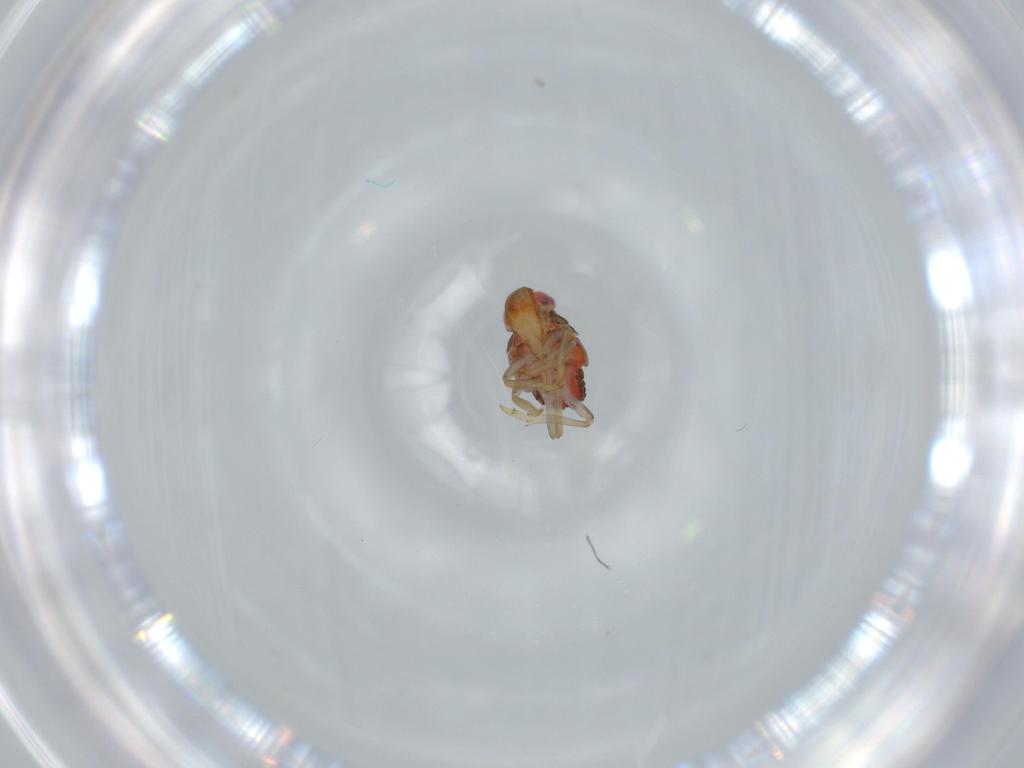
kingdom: Animalia
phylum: Arthropoda
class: Insecta
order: Hemiptera
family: Issidae
